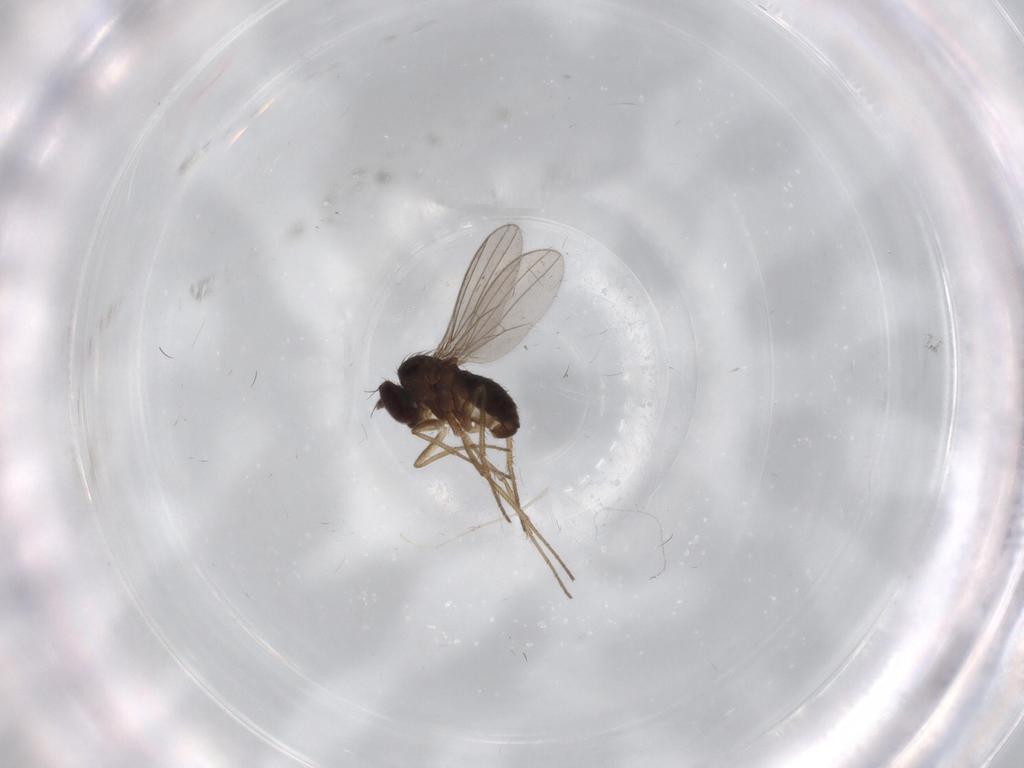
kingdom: Animalia
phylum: Arthropoda
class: Insecta
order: Diptera
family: Dolichopodidae
